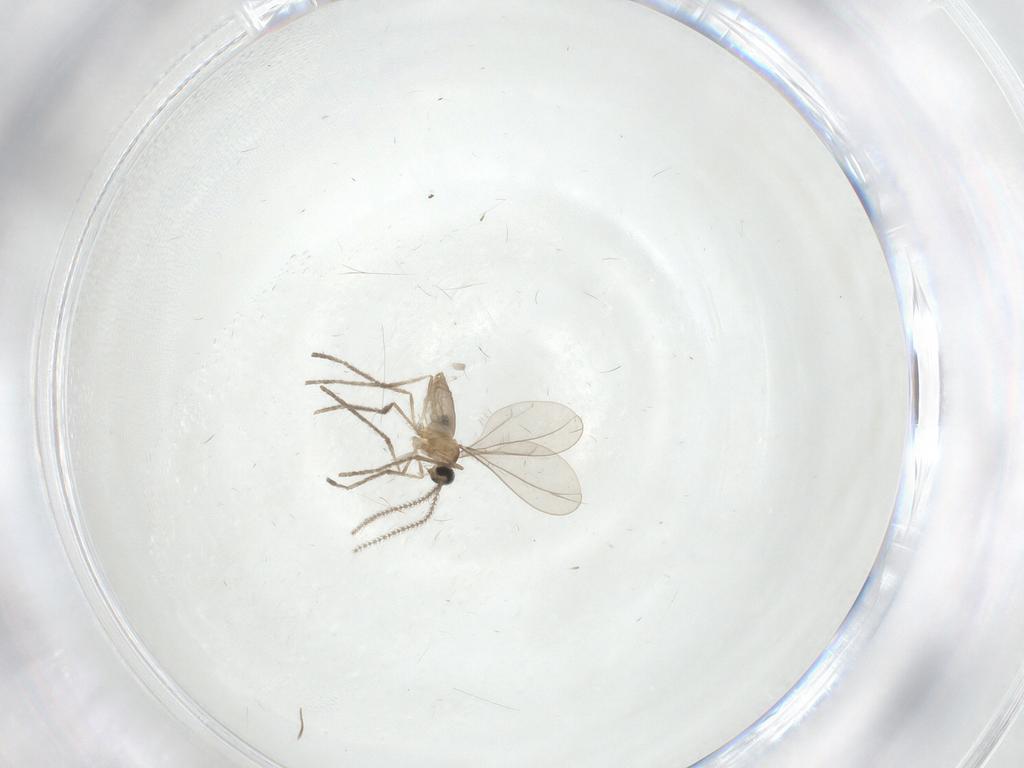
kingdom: Animalia
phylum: Arthropoda
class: Insecta
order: Diptera
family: Cecidomyiidae
